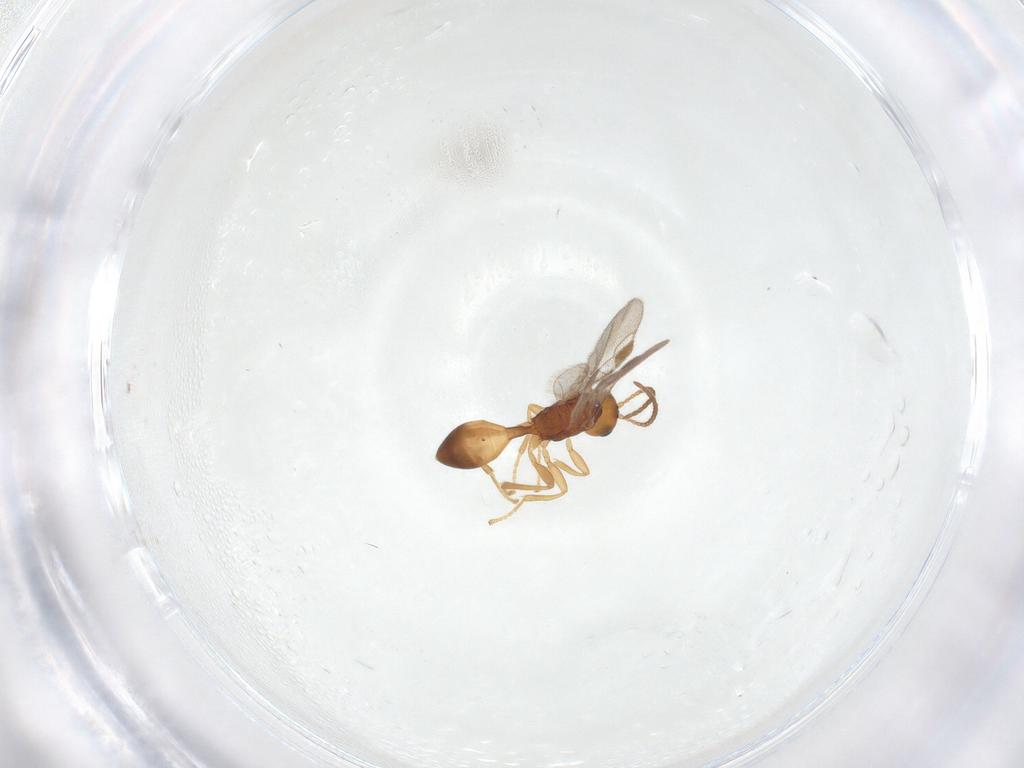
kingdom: Animalia
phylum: Arthropoda
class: Insecta
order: Hymenoptera
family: Braconidae
